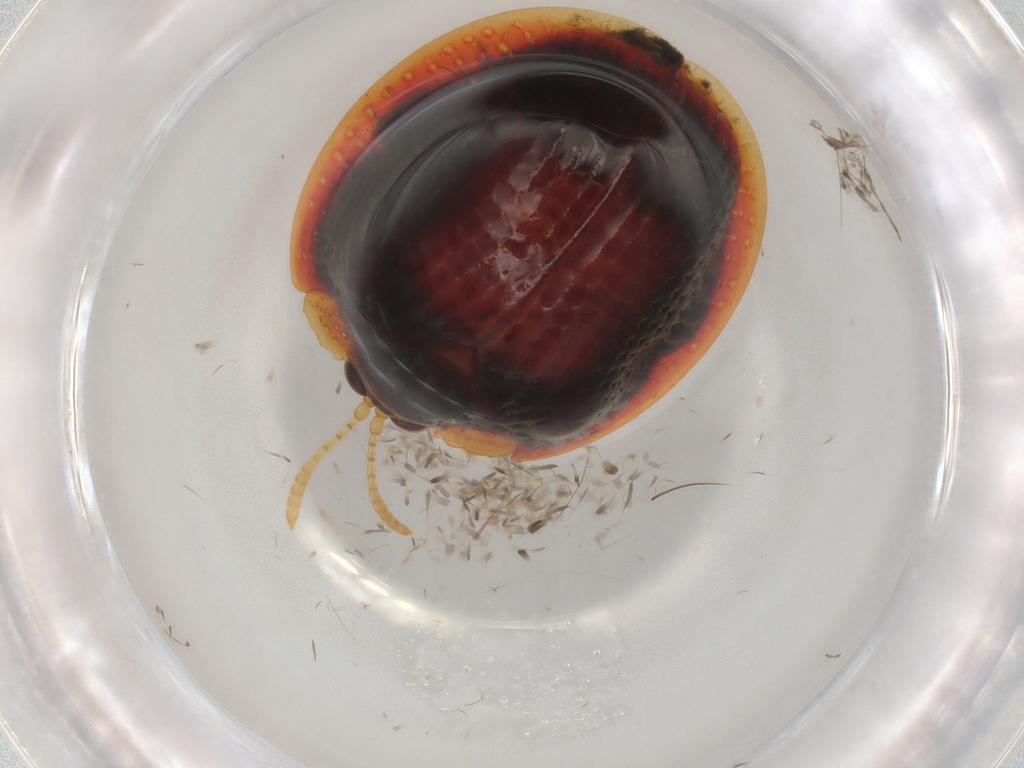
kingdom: Animalia
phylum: Arthropoda
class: Insecta
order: Coleoptera
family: Chrysomelidae
